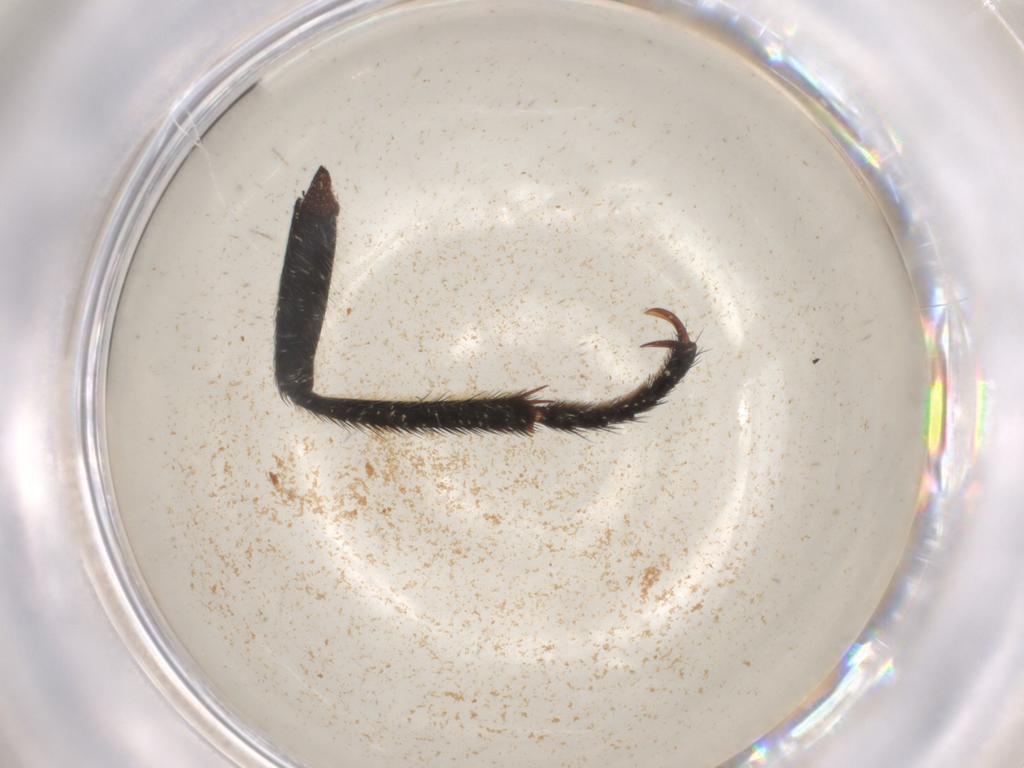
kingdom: Animalia
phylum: Arthropoda
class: Insecta
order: Coleoptera
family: Meloidae
